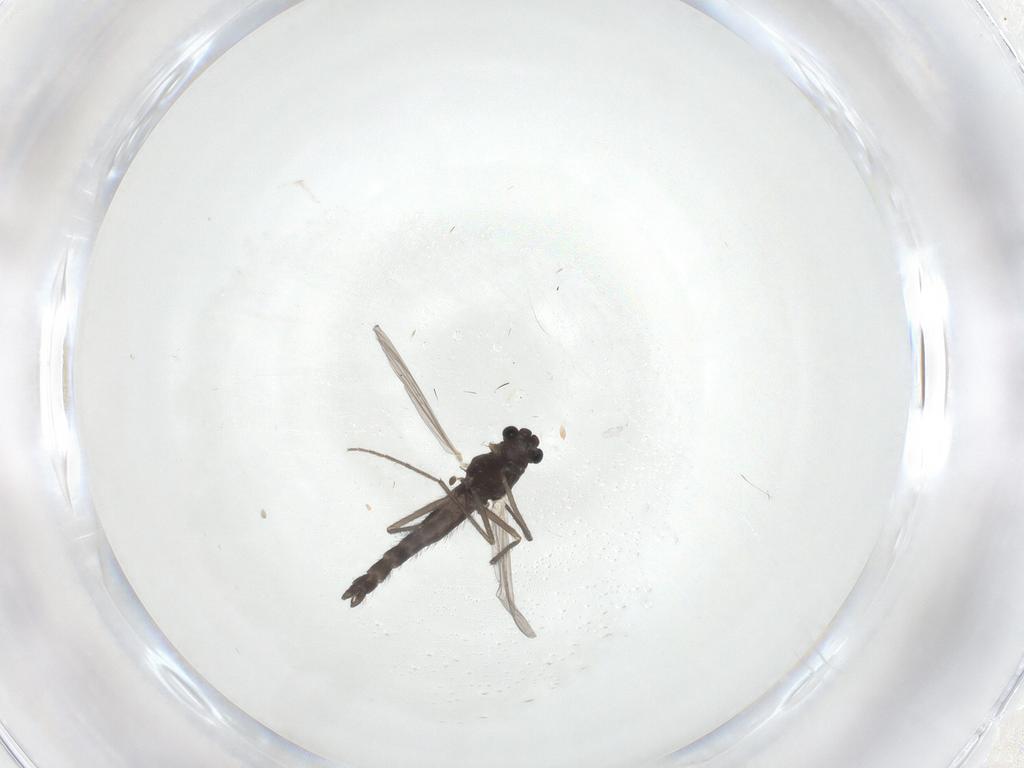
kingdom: Animalia
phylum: Arthropoda
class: Insecta
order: Diptera
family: Chironomidae
